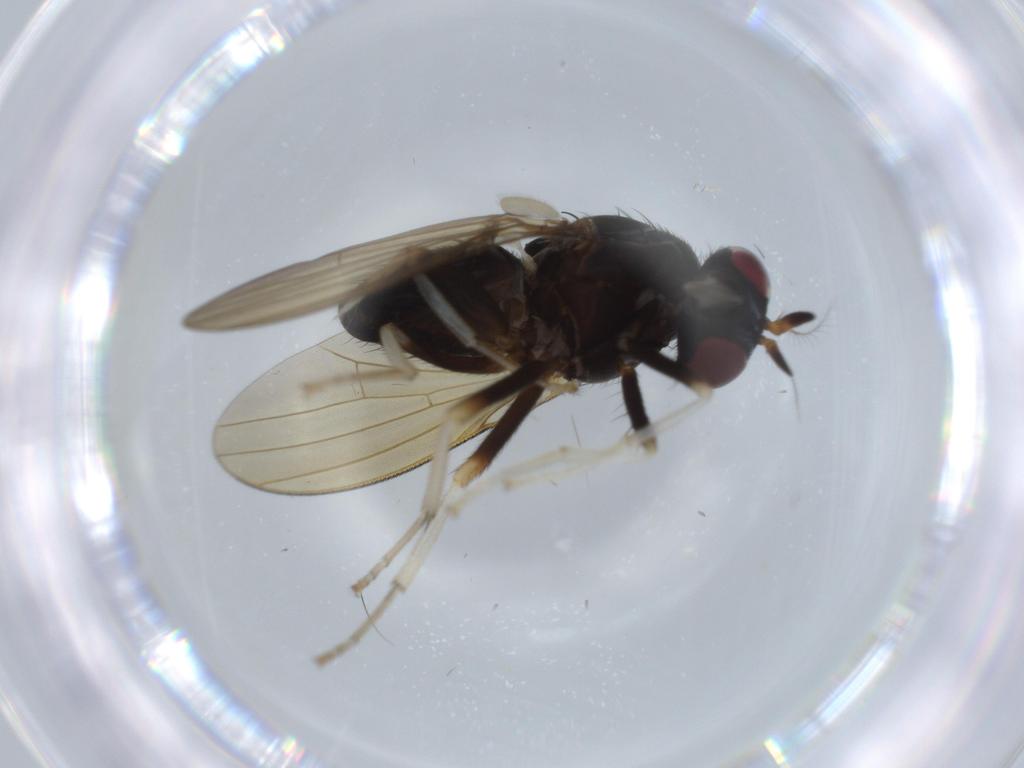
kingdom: Animalia
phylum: Arthropoda
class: Insecta
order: Diptera
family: Lauxaniidae
